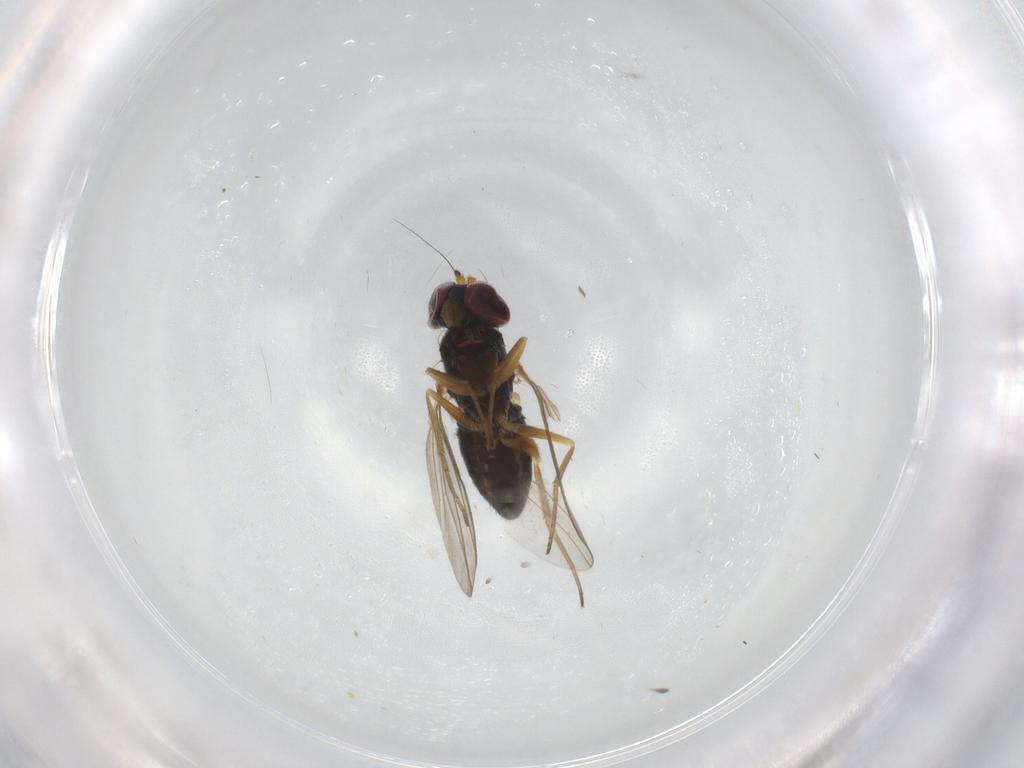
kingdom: Animalia
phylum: Arthropoda
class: Insecta
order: Diptera
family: Dolichopodidae
